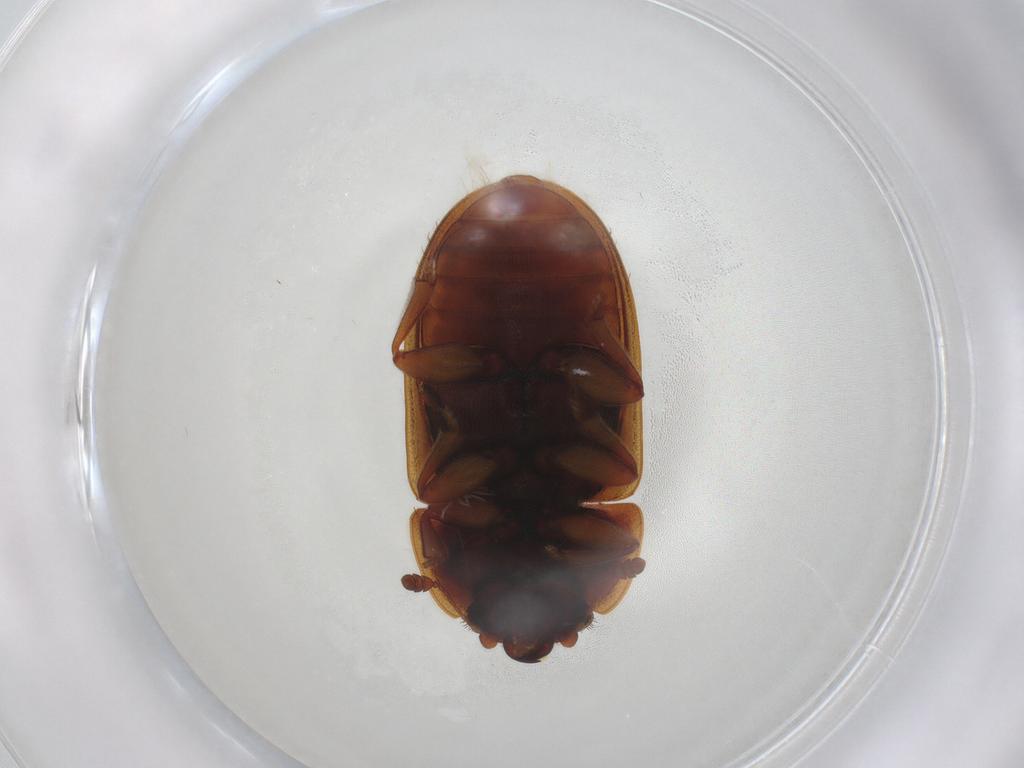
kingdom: Animalia
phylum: Arthropoda
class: Insecta
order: Coleoptera
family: Nitidulidae
